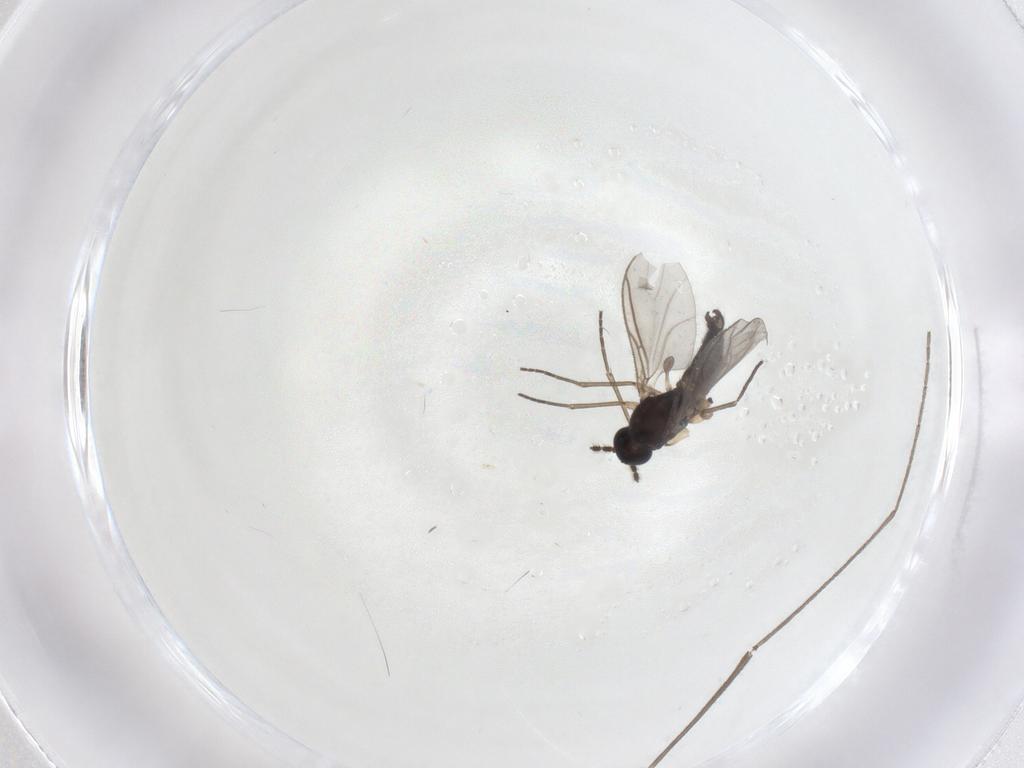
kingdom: Animalia
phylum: Arthropoda
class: Insecta
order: Diptera
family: Sciaridae
